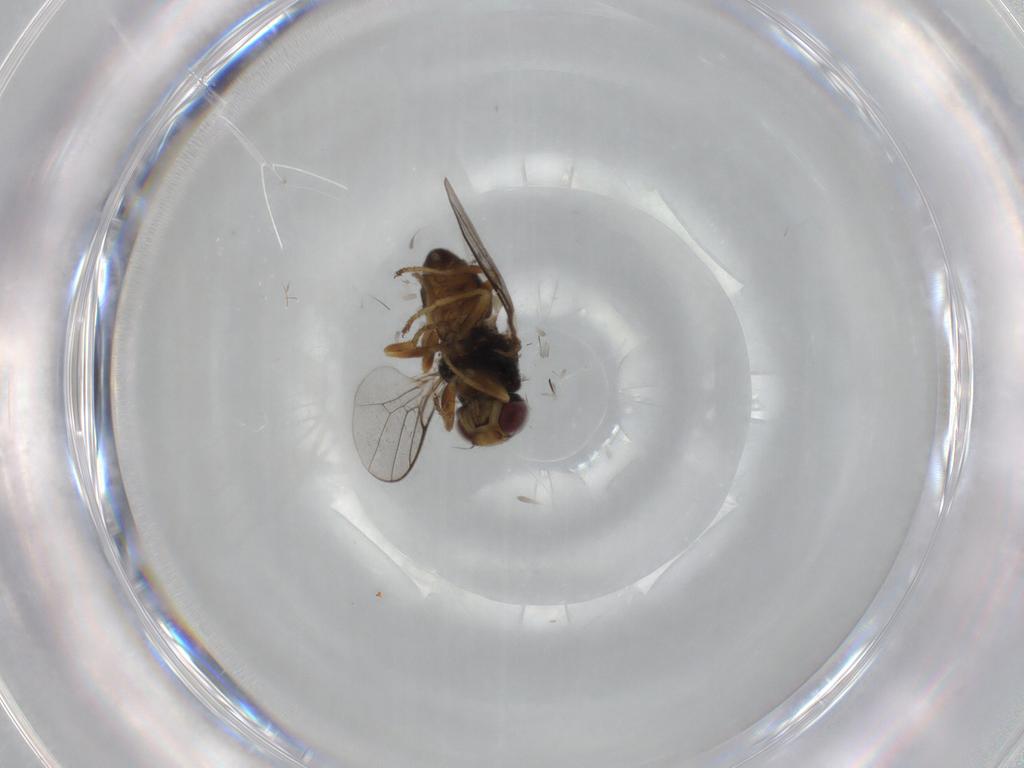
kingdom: Animalia
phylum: Arthropoda
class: Insecta
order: Diptera
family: Chloropidae
